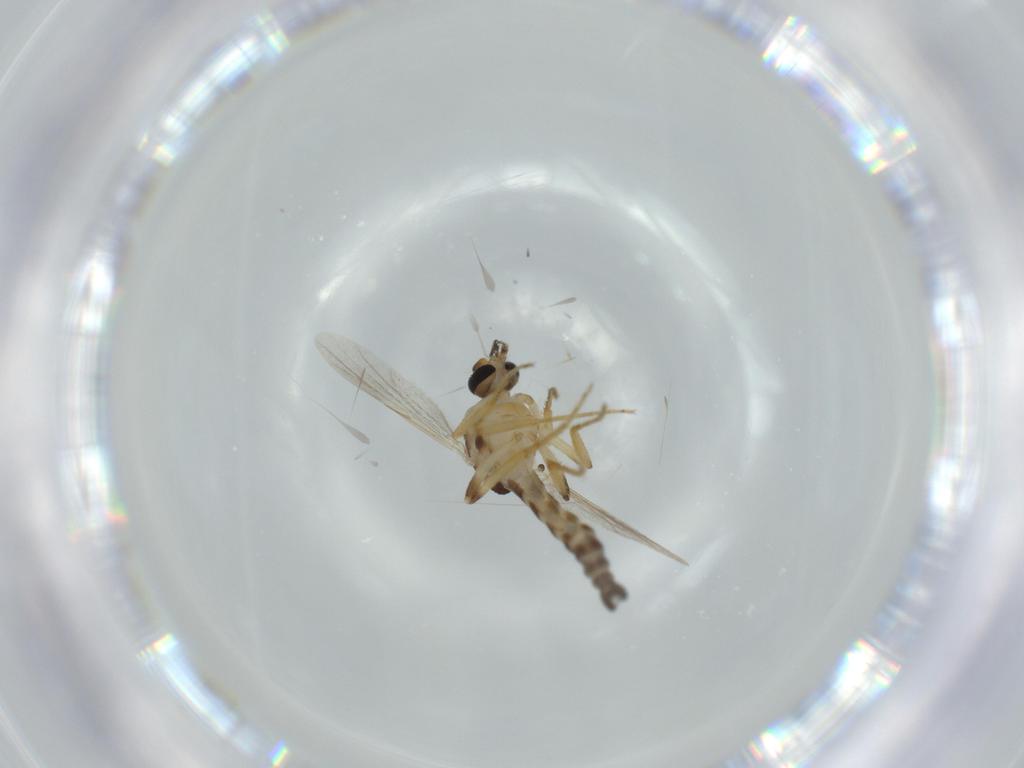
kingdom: Animalia
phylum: Arthropoda
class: Insecta
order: Diptera
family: Ceratopogonidae
